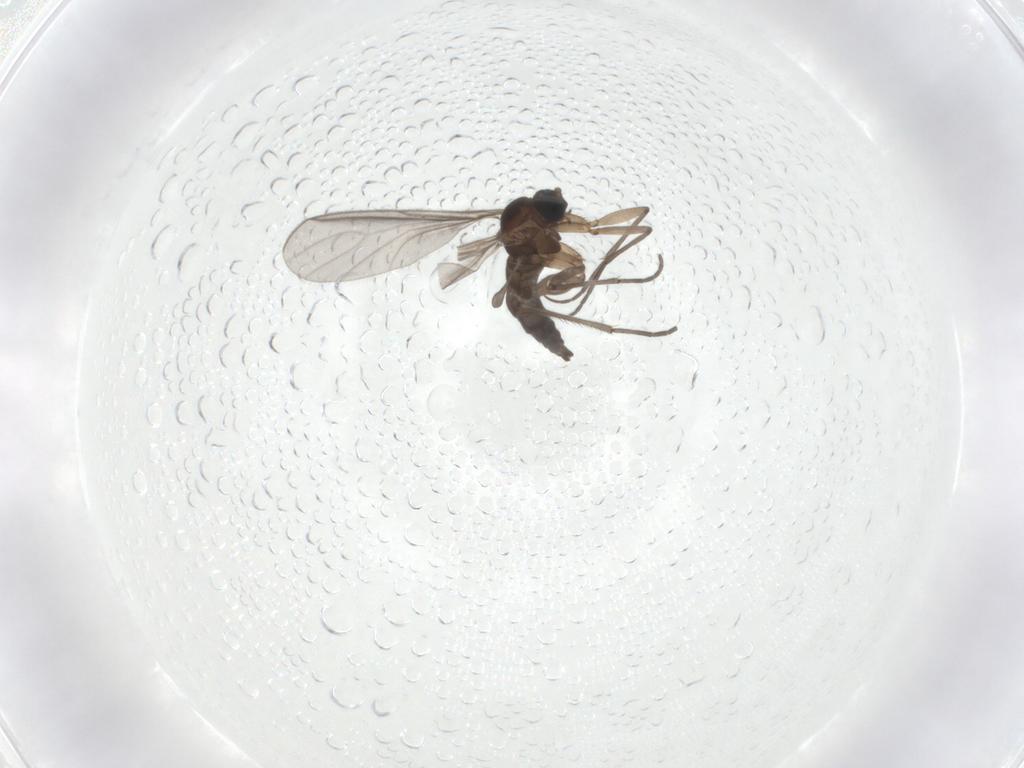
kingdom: Animalia
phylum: Arthropoda
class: Insecta
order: Diptera
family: Sciaridae
